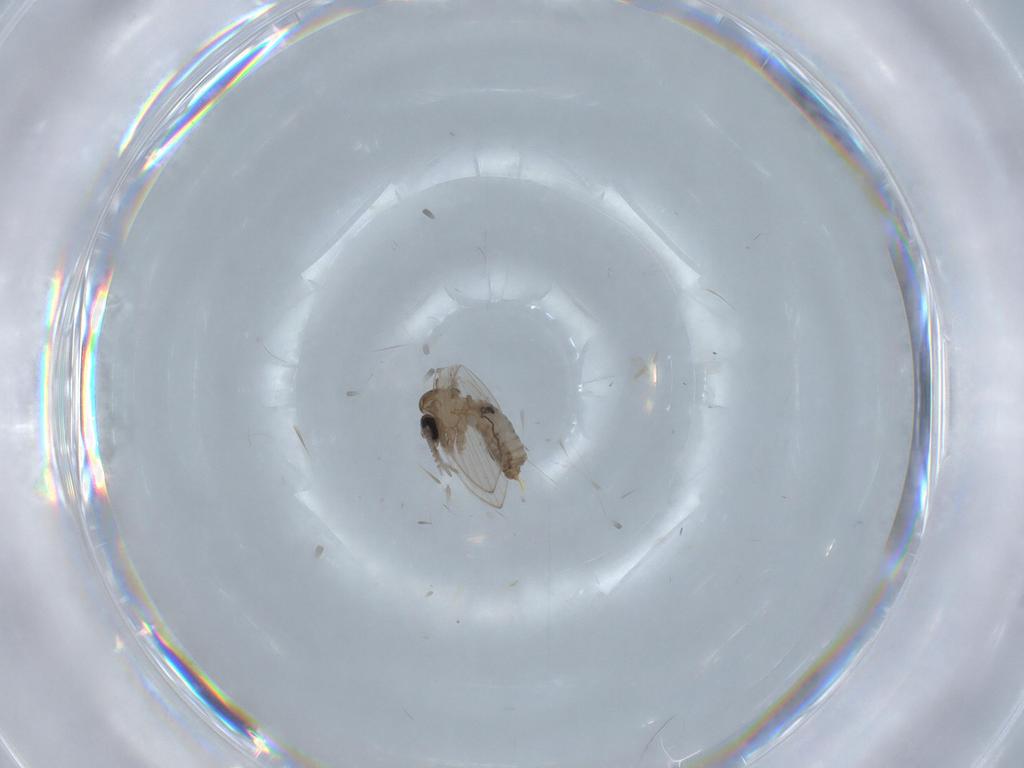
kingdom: Animalia
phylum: Arthropoda
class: Insecta
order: Diptera
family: Psychodidae
